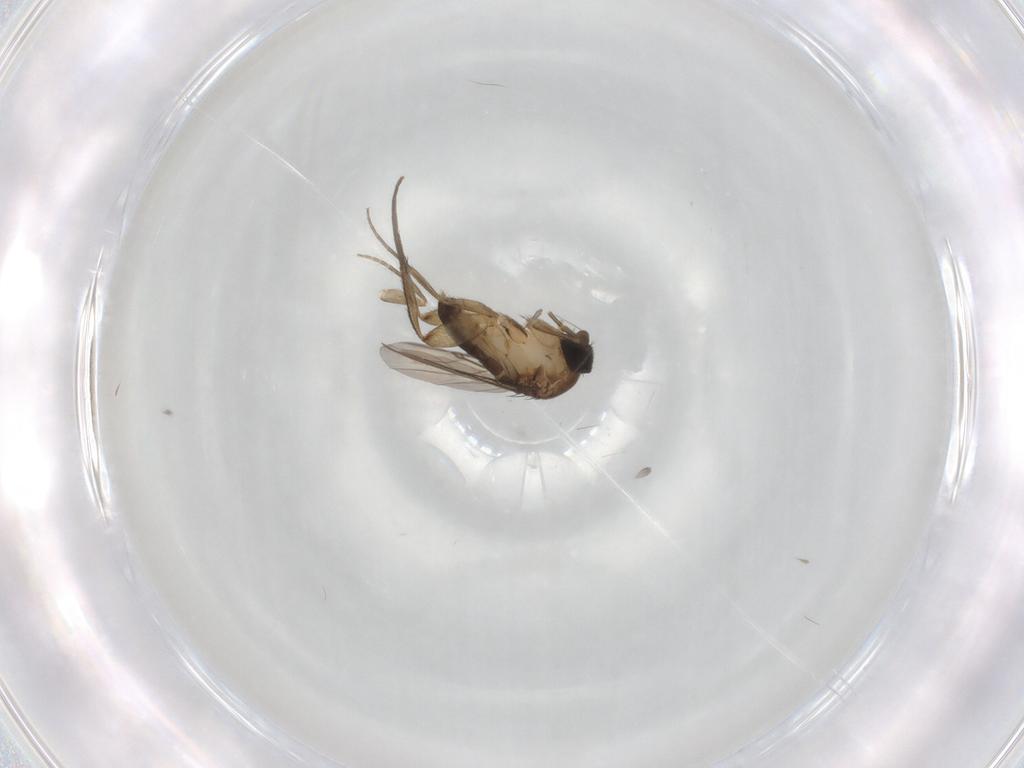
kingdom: Animalia
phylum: Arthropoda
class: Insecta
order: Diptera
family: Phoridae
